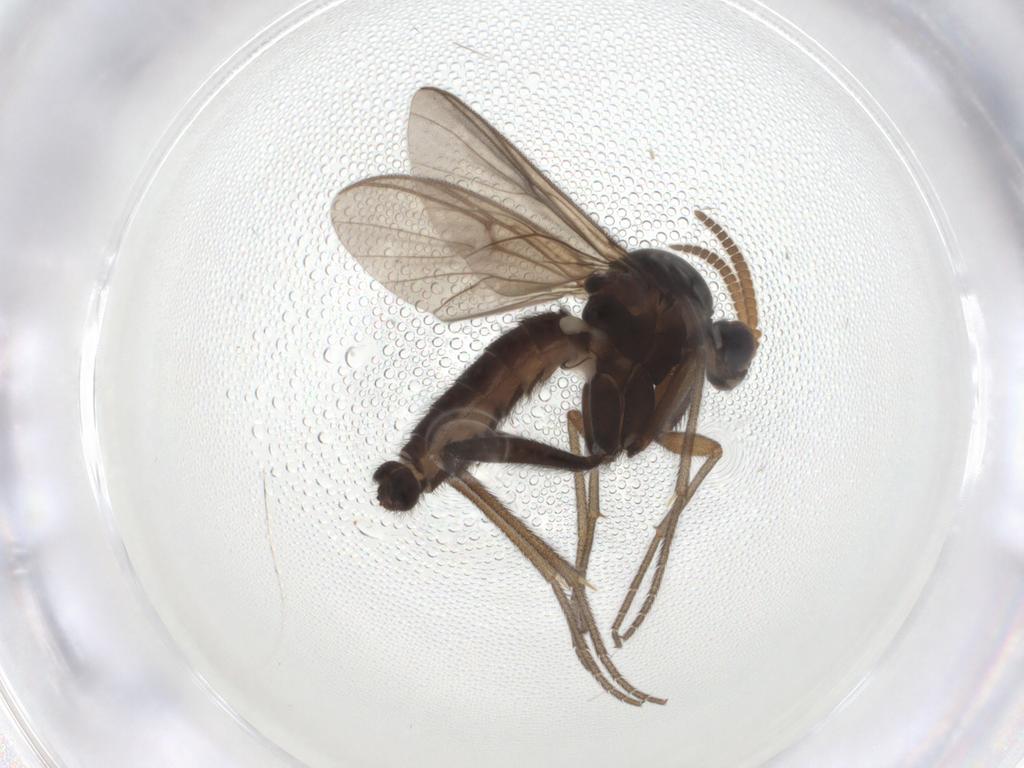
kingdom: Animalia
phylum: Arthropoda
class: Insecta
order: Diptera
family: Mycetophilidae
